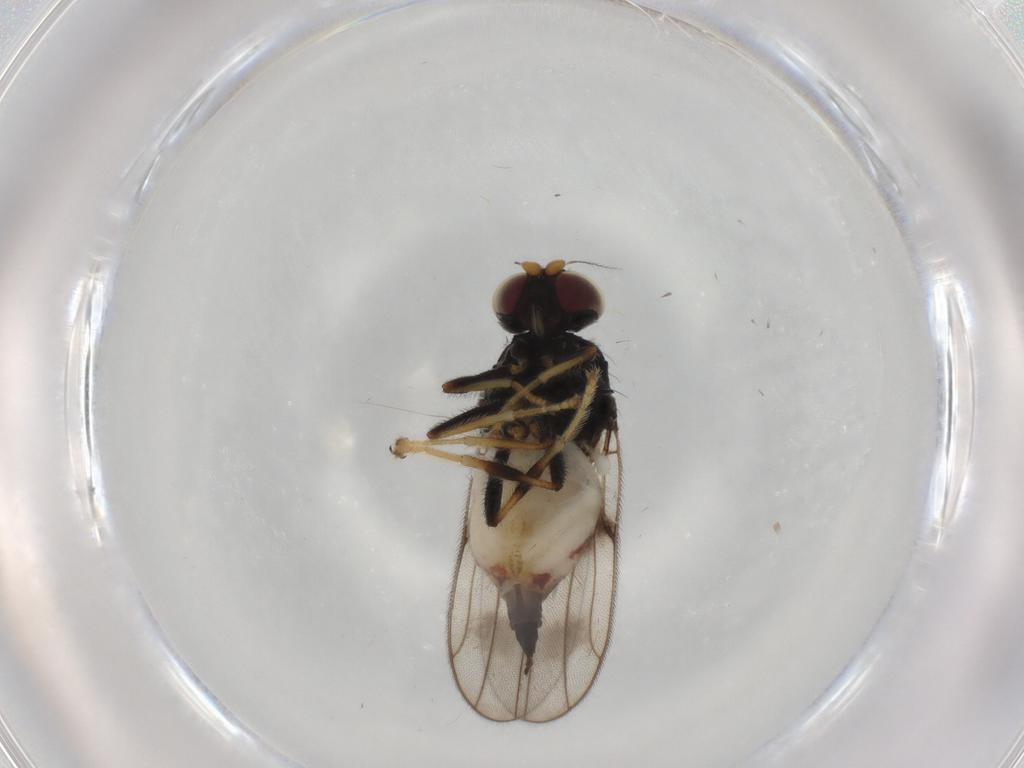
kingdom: Animalia
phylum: Arthropoda
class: Insecta
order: Diptera
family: Chloropidae
